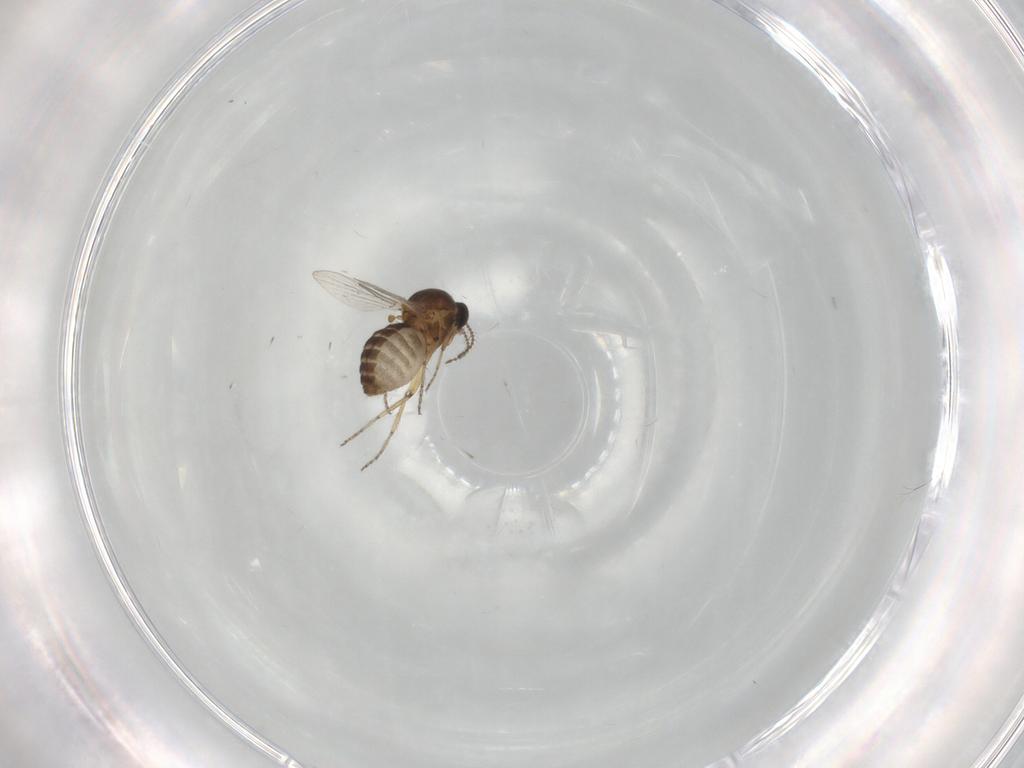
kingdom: Animalia
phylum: Arthropoda
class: Insecta
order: Diptera
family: Ceratopogonidae
